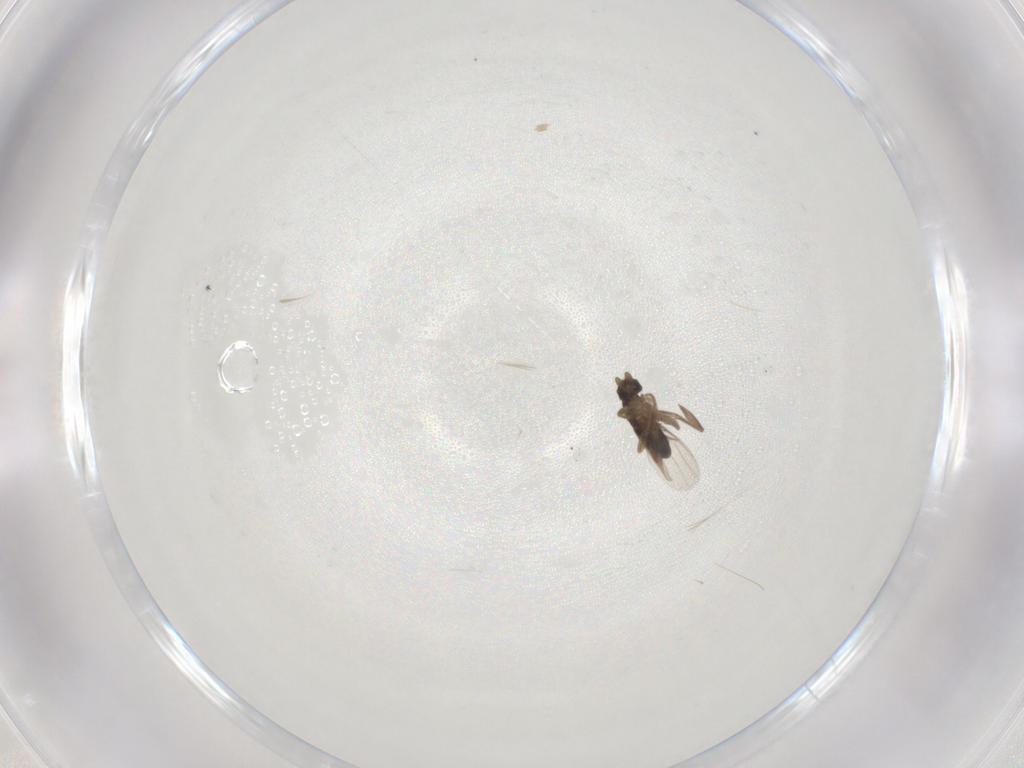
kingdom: Animalia
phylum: Arthropoda
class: Insecta
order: Diptera
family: Phoridae
